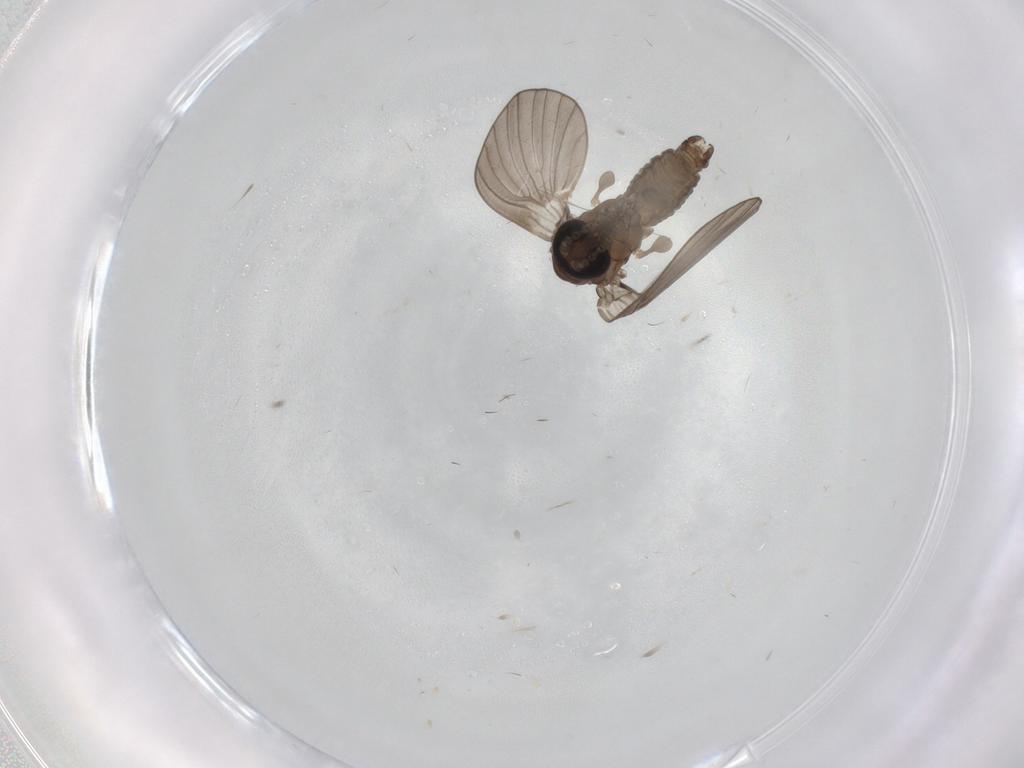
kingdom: Animalia
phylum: Arthropoda
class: Insecta
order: Diptera
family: Phoridae
